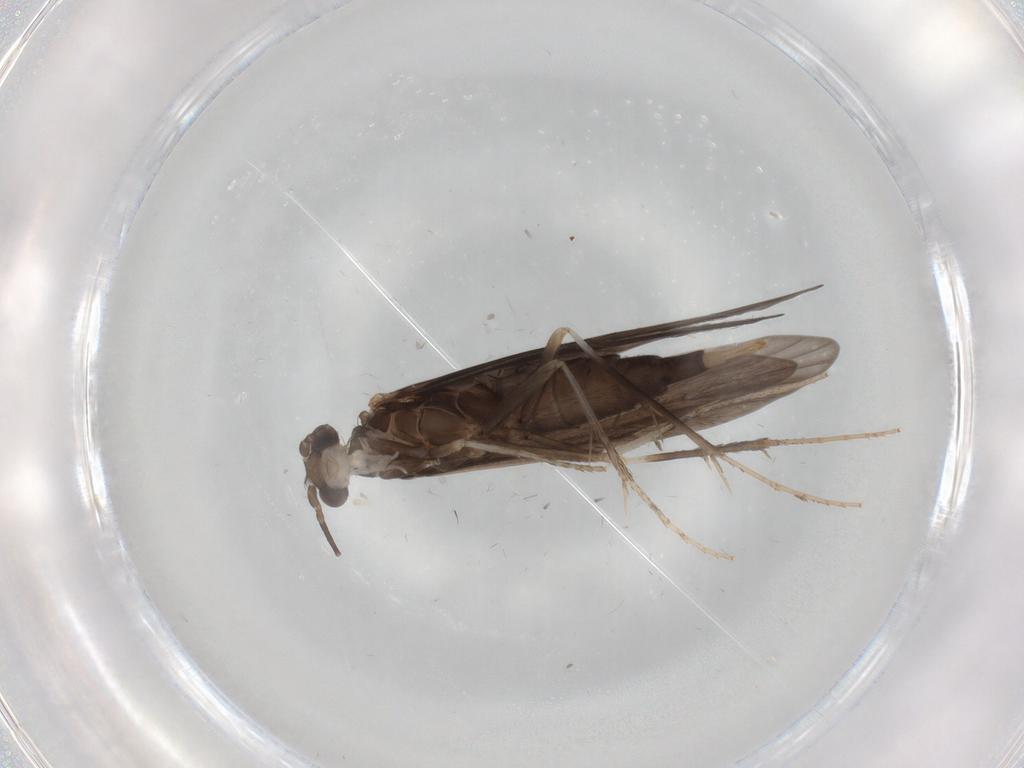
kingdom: Animalia
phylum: Arthropoda
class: Insecta
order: Trichoptera
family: Xiphocentronidae
